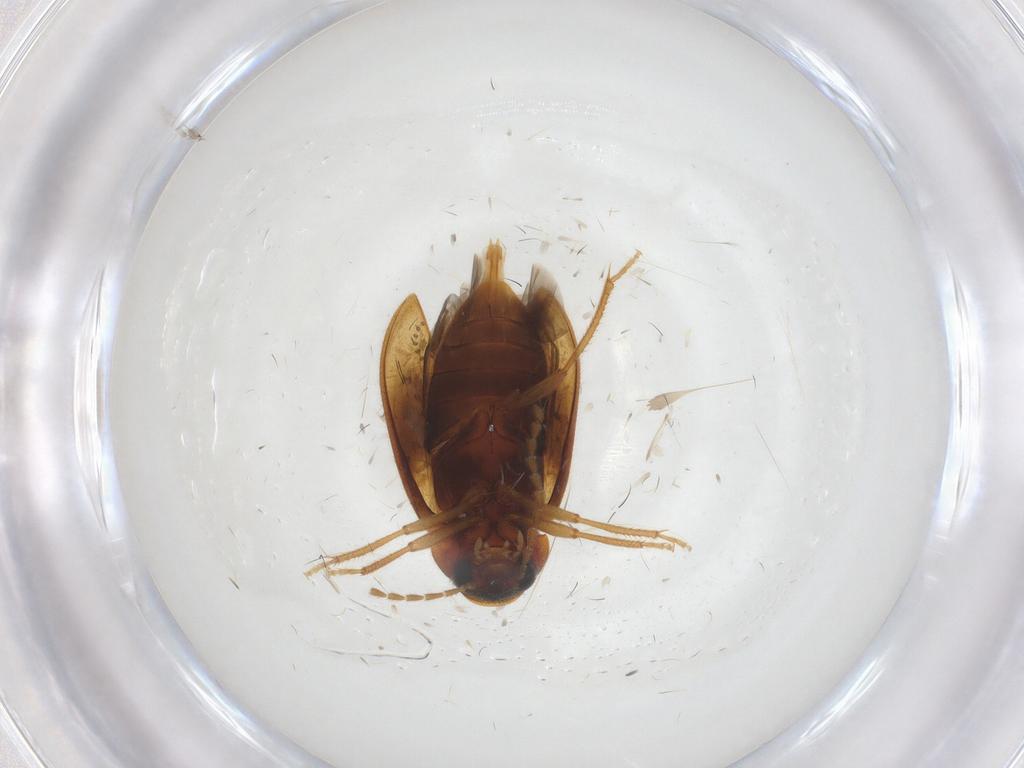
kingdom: Animalia
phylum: Arthropoda
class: Insecta
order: Coleoptera
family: Ptilodactylidae
